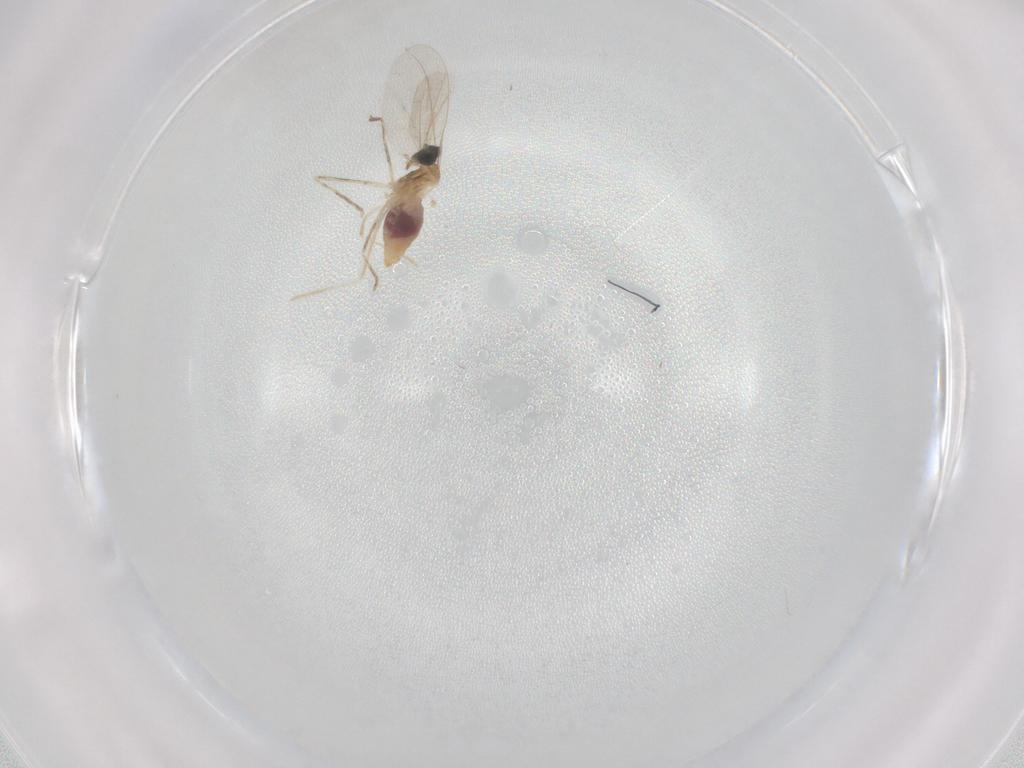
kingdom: Animalia
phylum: Arthropoda
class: Insecta
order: Diptera
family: Cecidomyiidae
